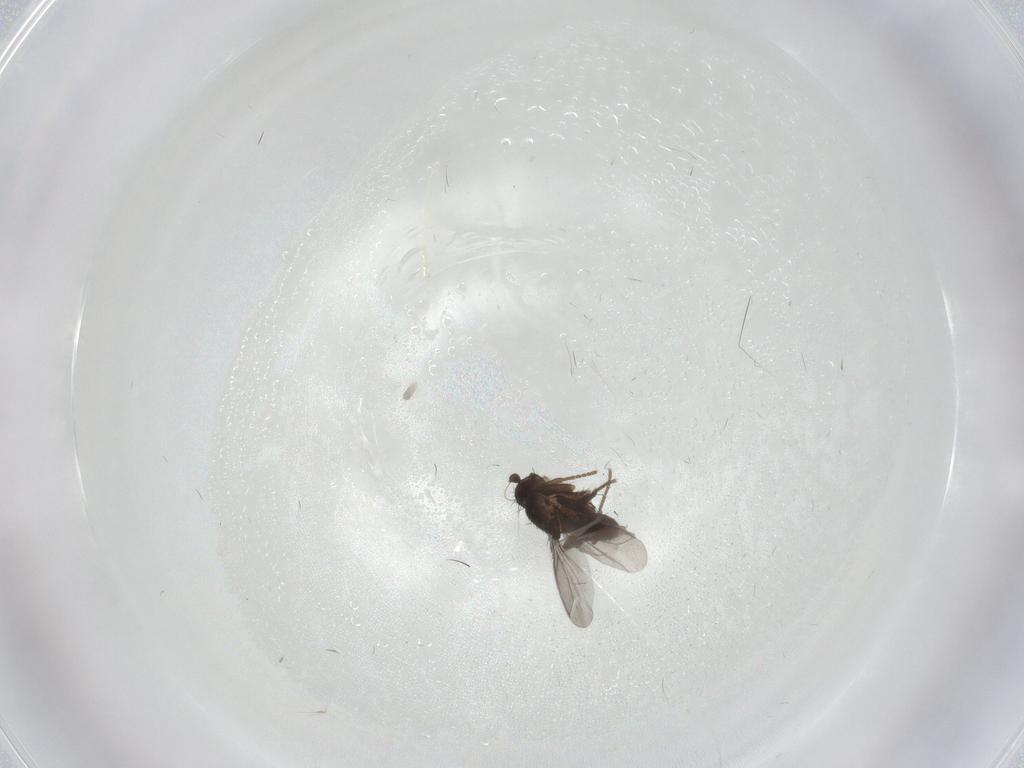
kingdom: Animalia
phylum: Arthropoda
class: Insecta
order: Diptera
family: Sphaeroceridae
